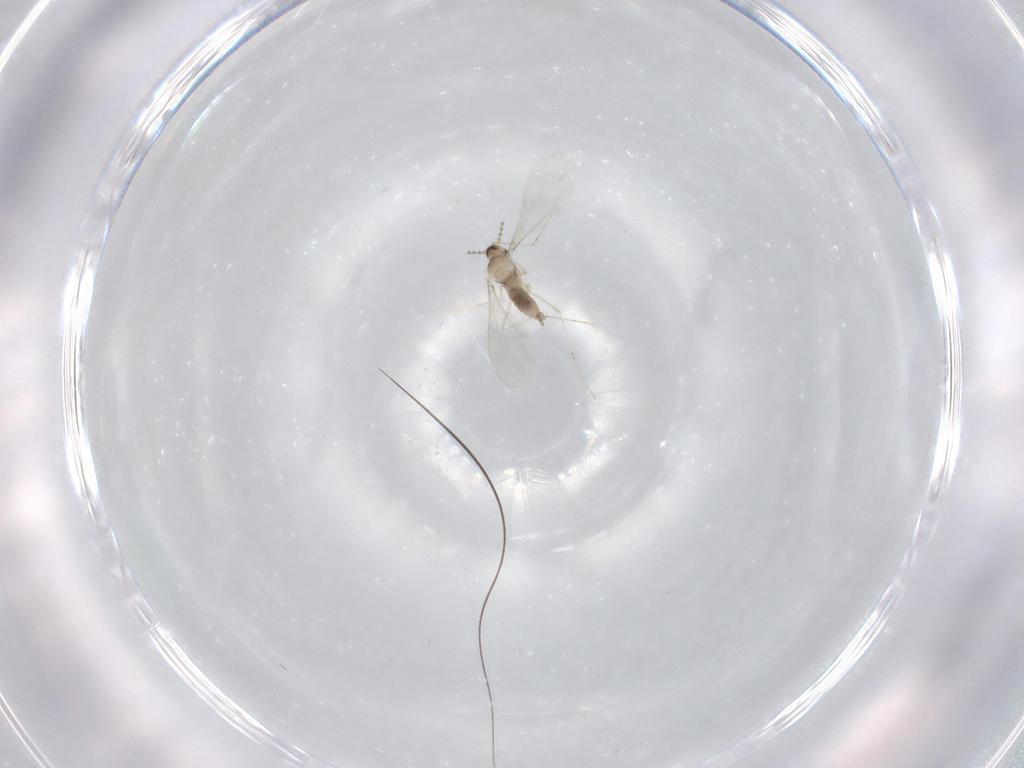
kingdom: Animalia
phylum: Arthropoda
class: Insecta
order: Diptera
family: Cecidomyiidae
